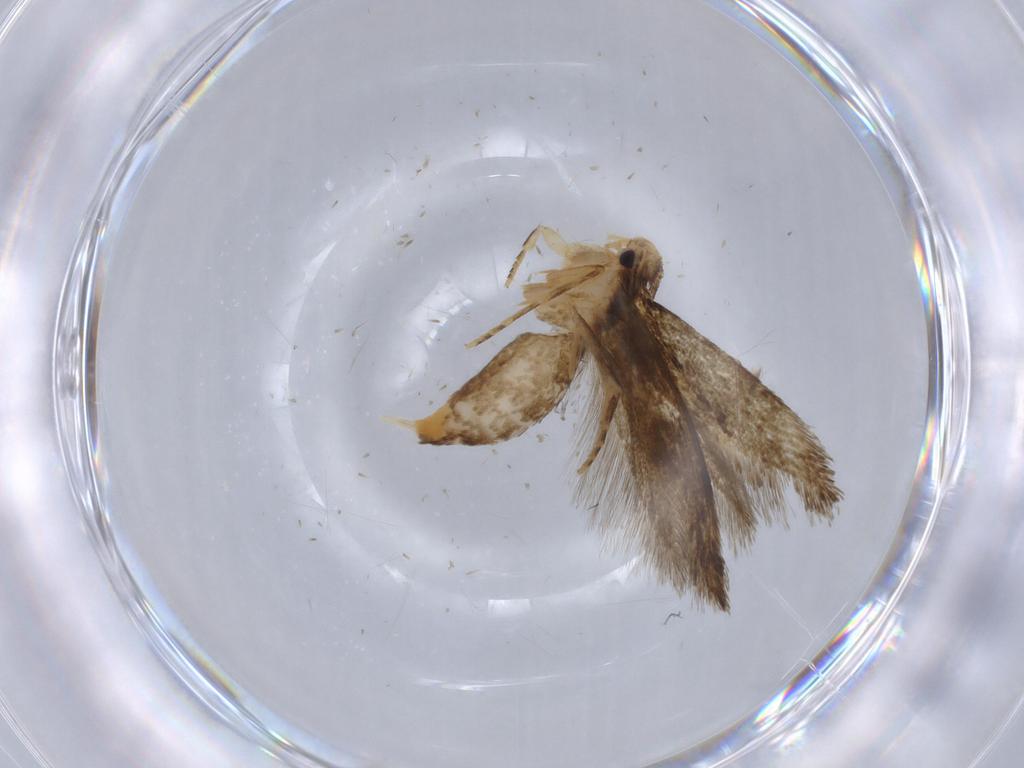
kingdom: Animalia
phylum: Arthropoda
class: Insecta
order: Lepidoptera
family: Tineidae
